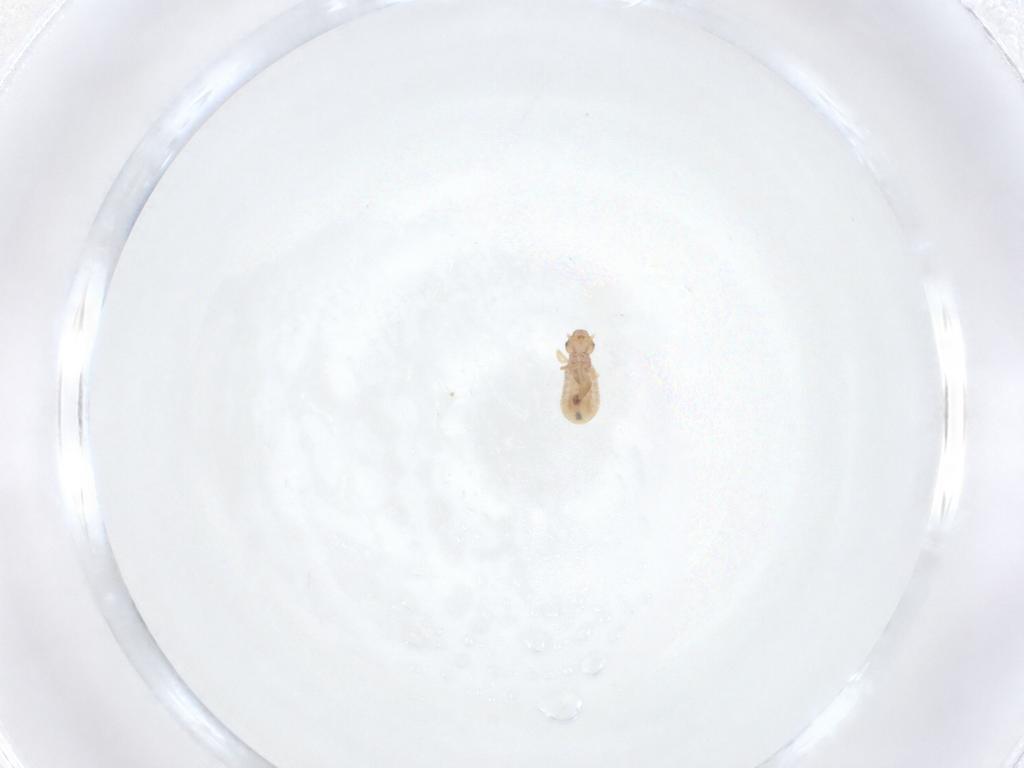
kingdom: Animalia
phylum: Arthropoda
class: Insecta
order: Psocodea
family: Liposcelididae
